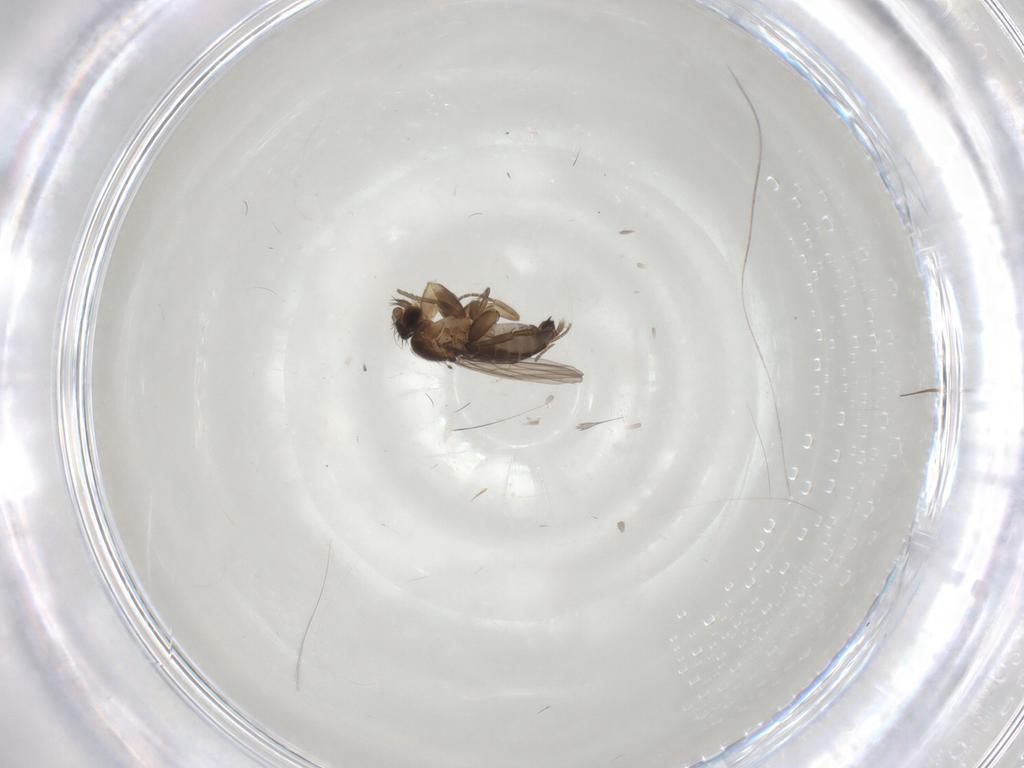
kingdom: Animalia
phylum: Arthropoda
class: Insecta
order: Diptera
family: Phoridae
